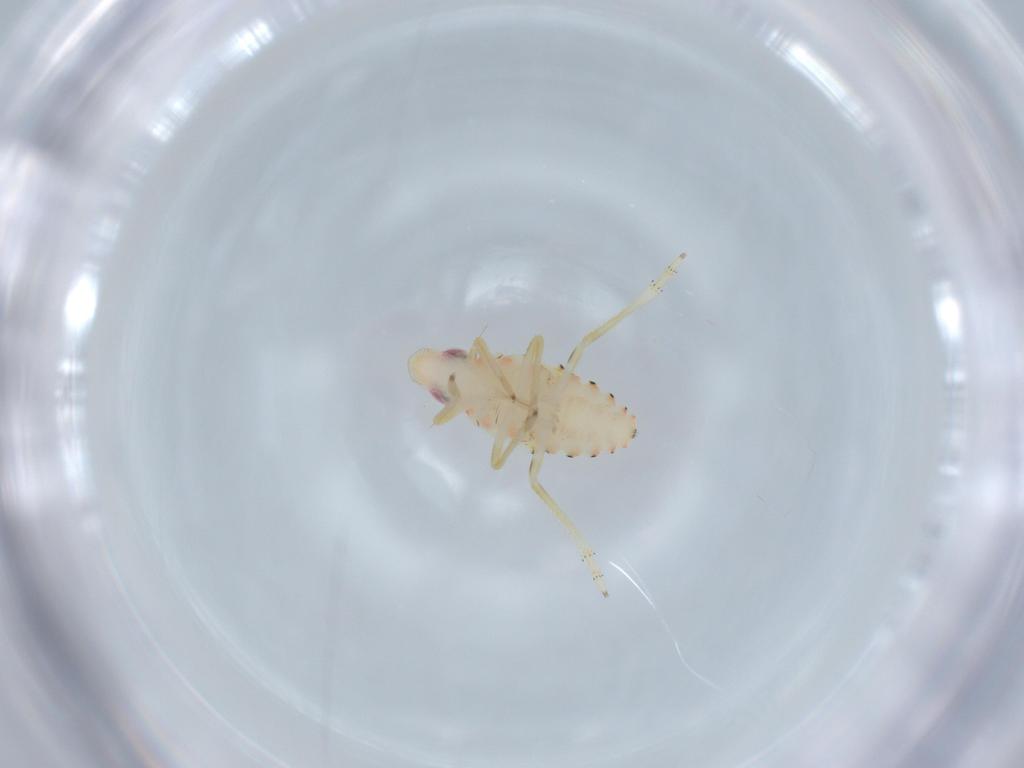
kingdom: Animalia
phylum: Arthropoda
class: Insecta
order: Hemiptera
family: Tropiduchidae
